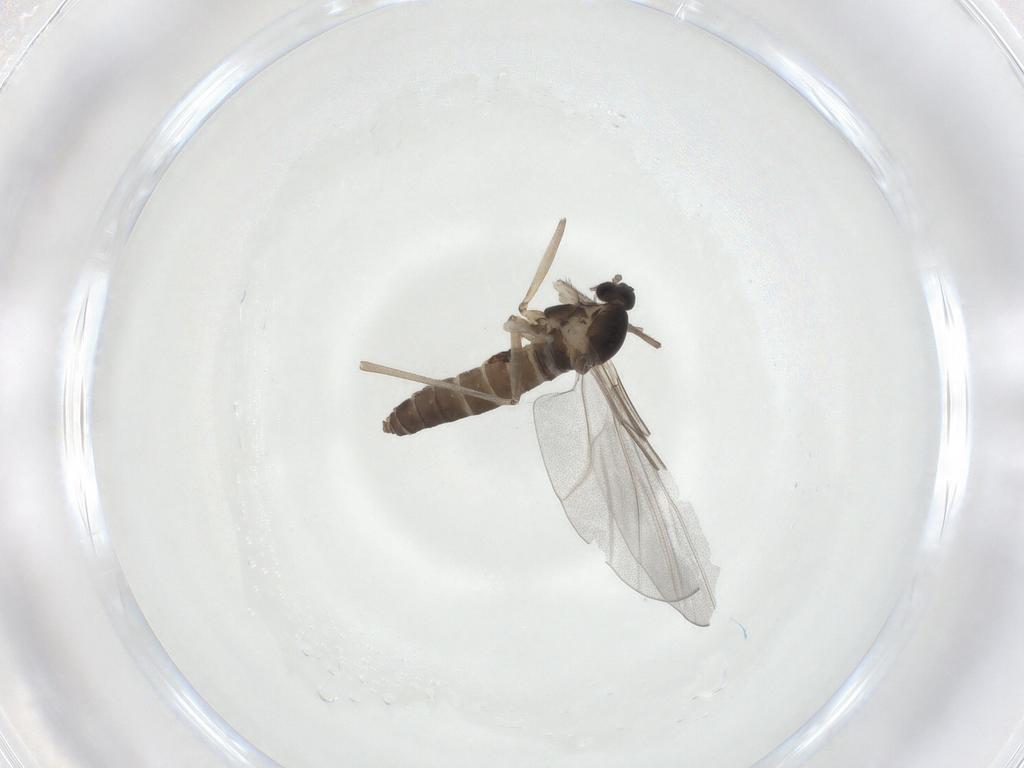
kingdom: Animalia
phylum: Arthropoda
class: Insecta
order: Diptera
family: Cecidomyiidae
